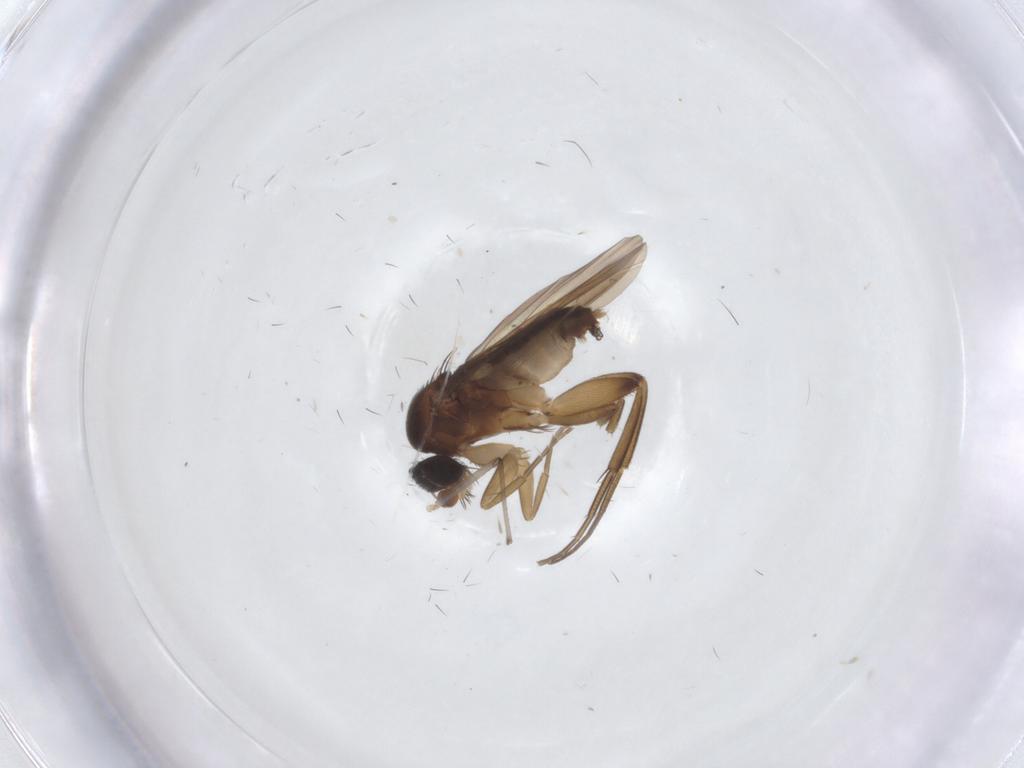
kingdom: Animalia
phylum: Arthropoda
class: Insecta
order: Diptera
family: Phoridae
